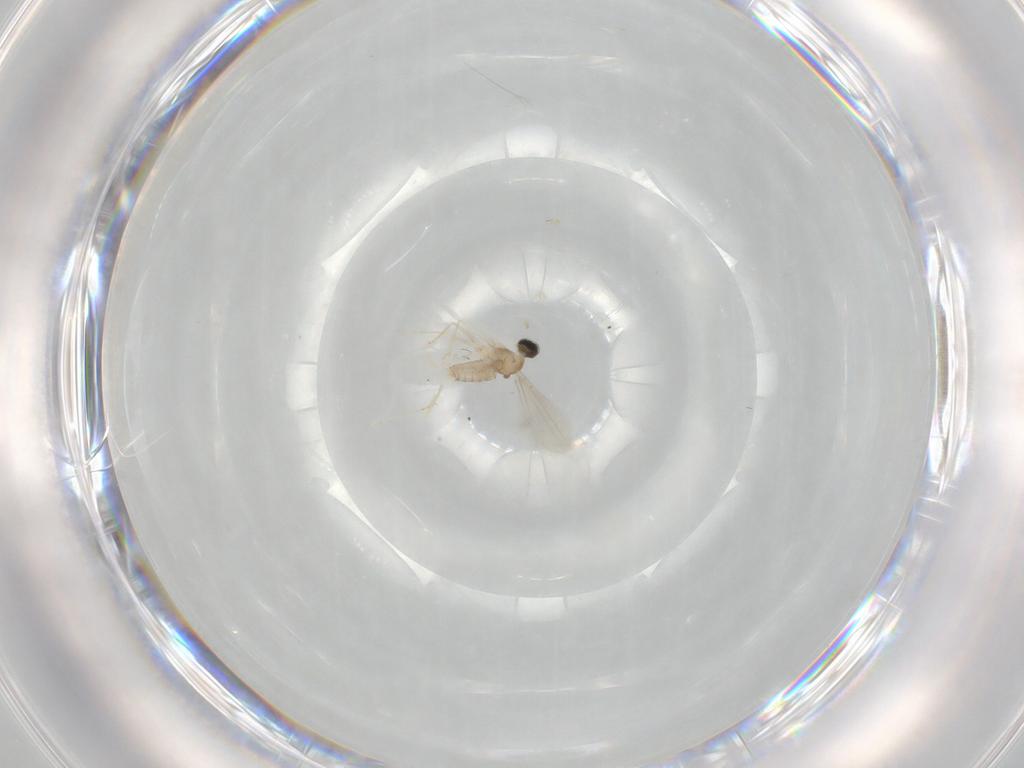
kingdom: Animalia
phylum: Arthropoda
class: Insecta
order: Diptera
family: Cecidomyiidae
